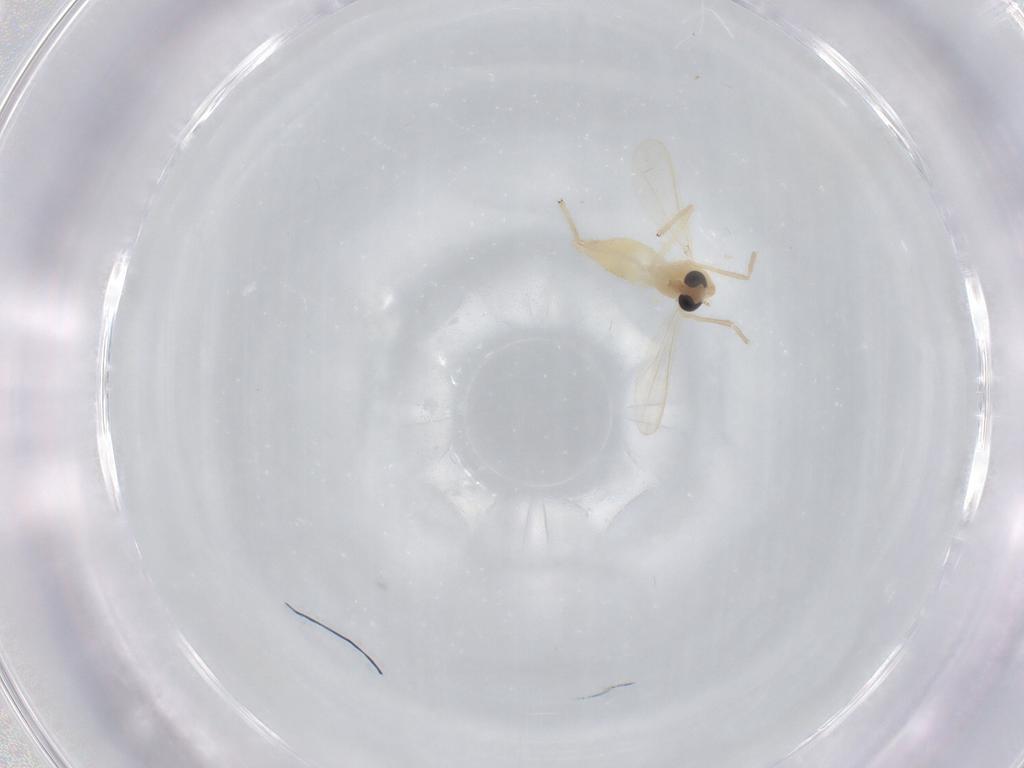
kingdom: Animalia
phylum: Arthropoda
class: Insecta
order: Diptera
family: Chironomidae
